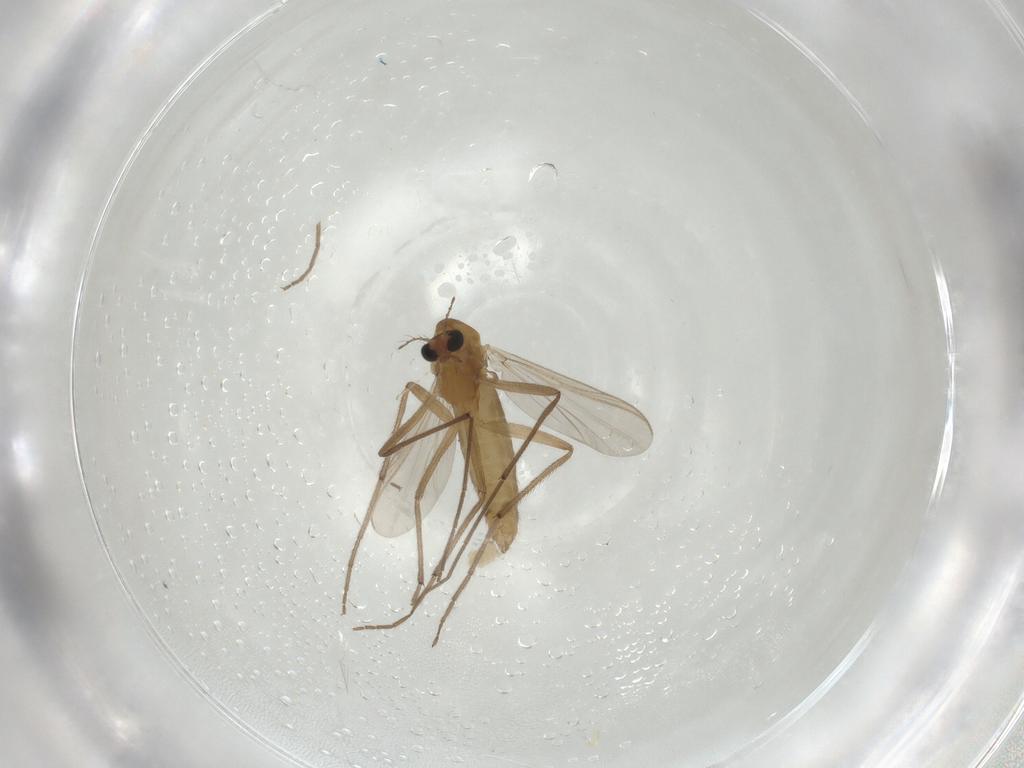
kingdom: Animalia
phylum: Arthropoda
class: Insecta
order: Diptera
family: Chironomidae
